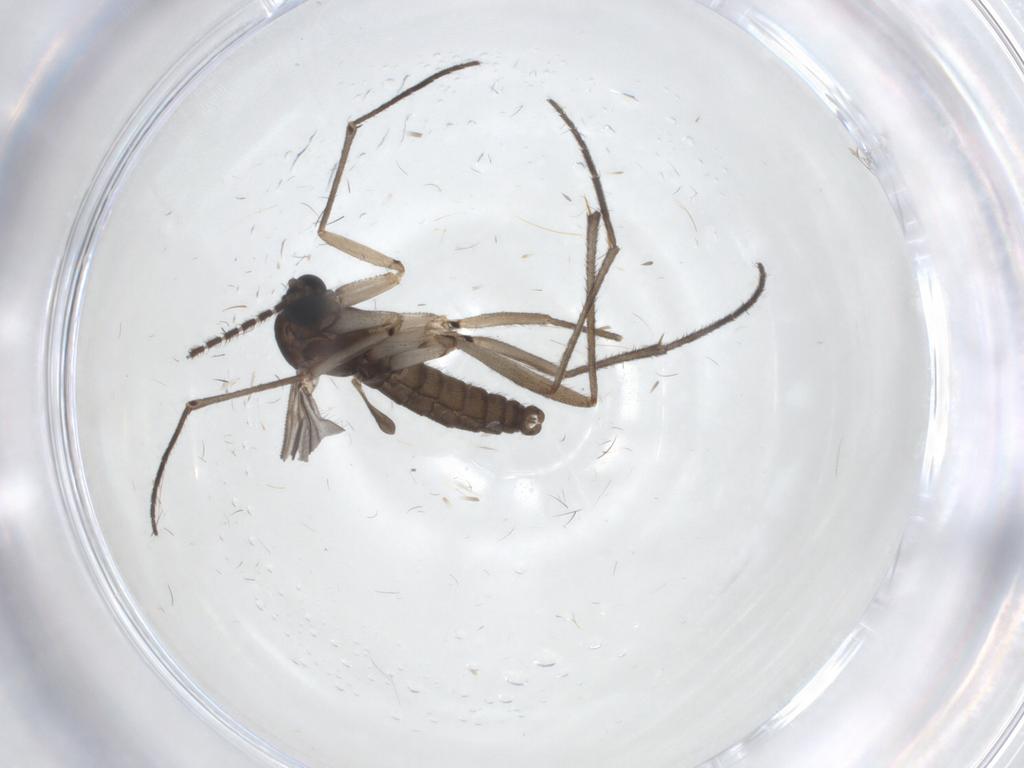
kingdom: Animalia
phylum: Arthropoda
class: Insecta
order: Diptera
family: Sciaridae
